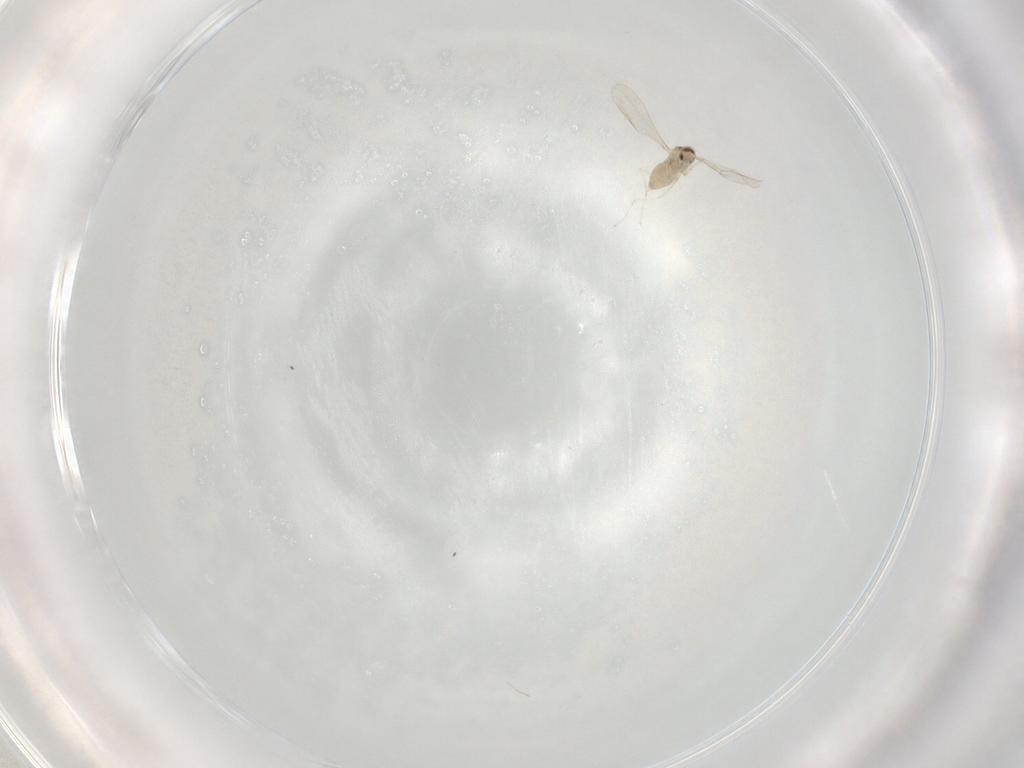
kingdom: Animalia
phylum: Arthropoda
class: Insecta
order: Diptera
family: Cecidomyiidae
